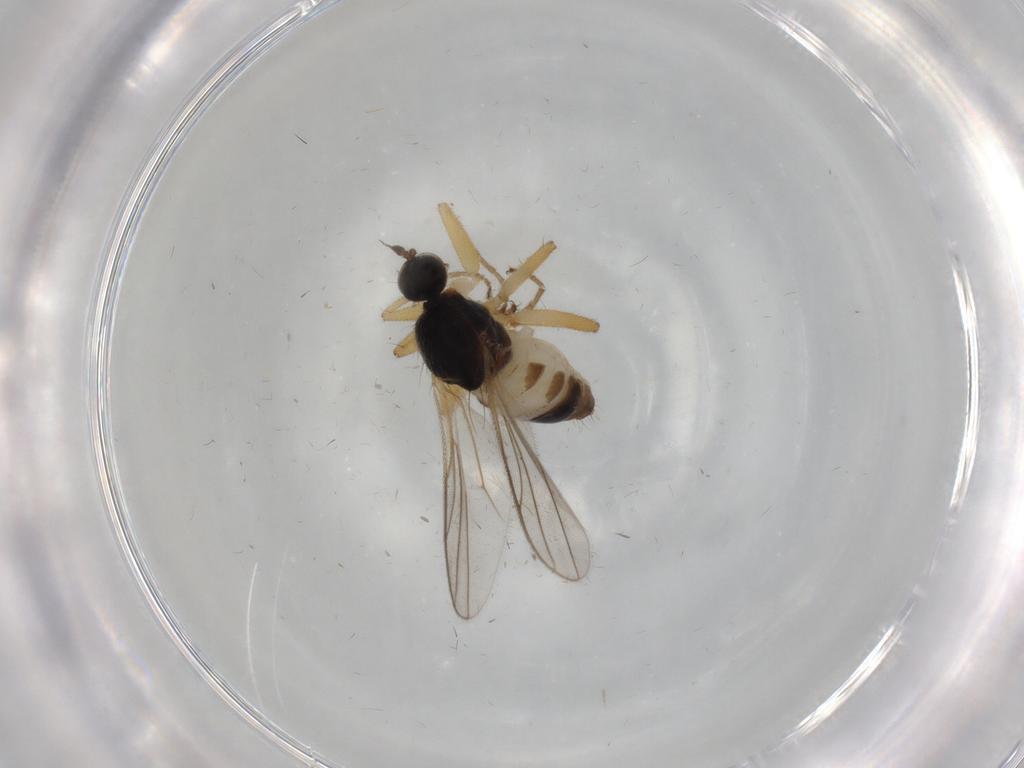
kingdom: Animalia
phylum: Arthropoda
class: Insecta
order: Diptera
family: Hybotidae
